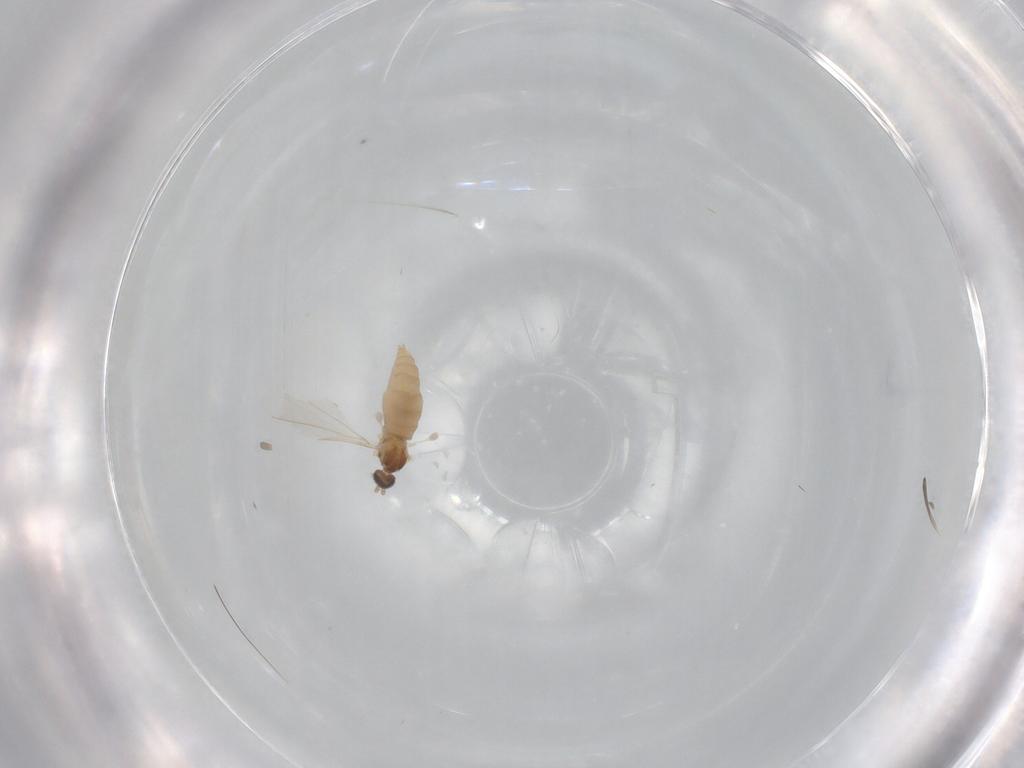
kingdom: Animalia
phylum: Arthropoda
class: Insecta
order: Diptera
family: Cecidomyiidae
